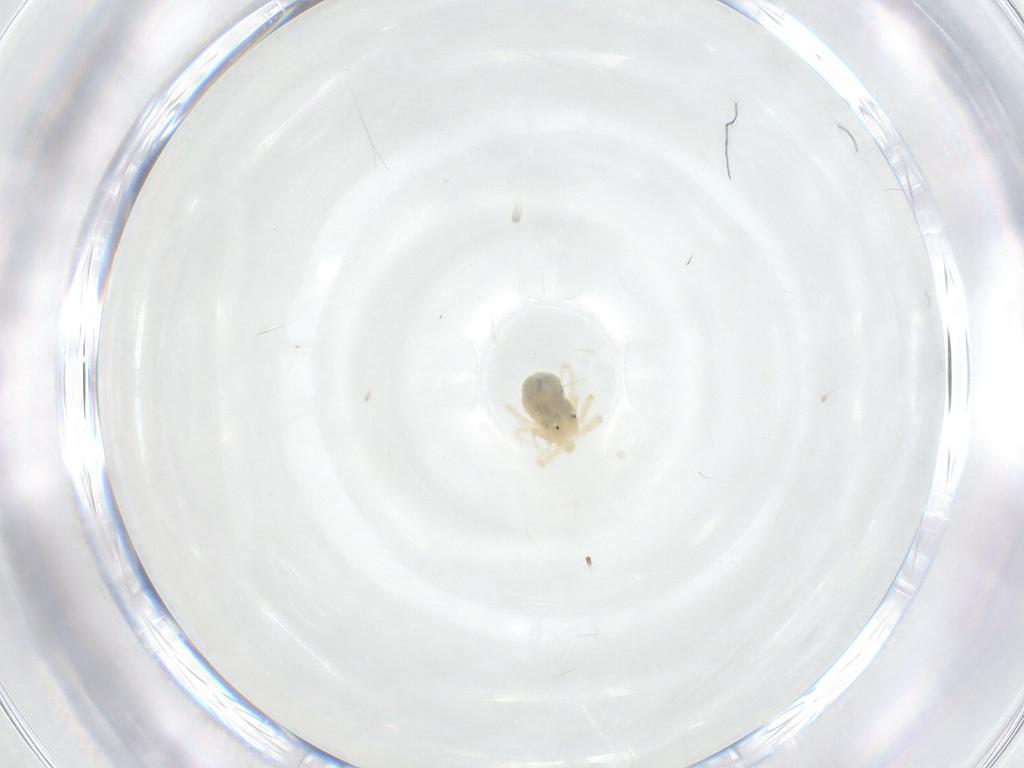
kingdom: Animalia
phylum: Arthropoda
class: Arachnida
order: Trombidiformes
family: Anystidae
